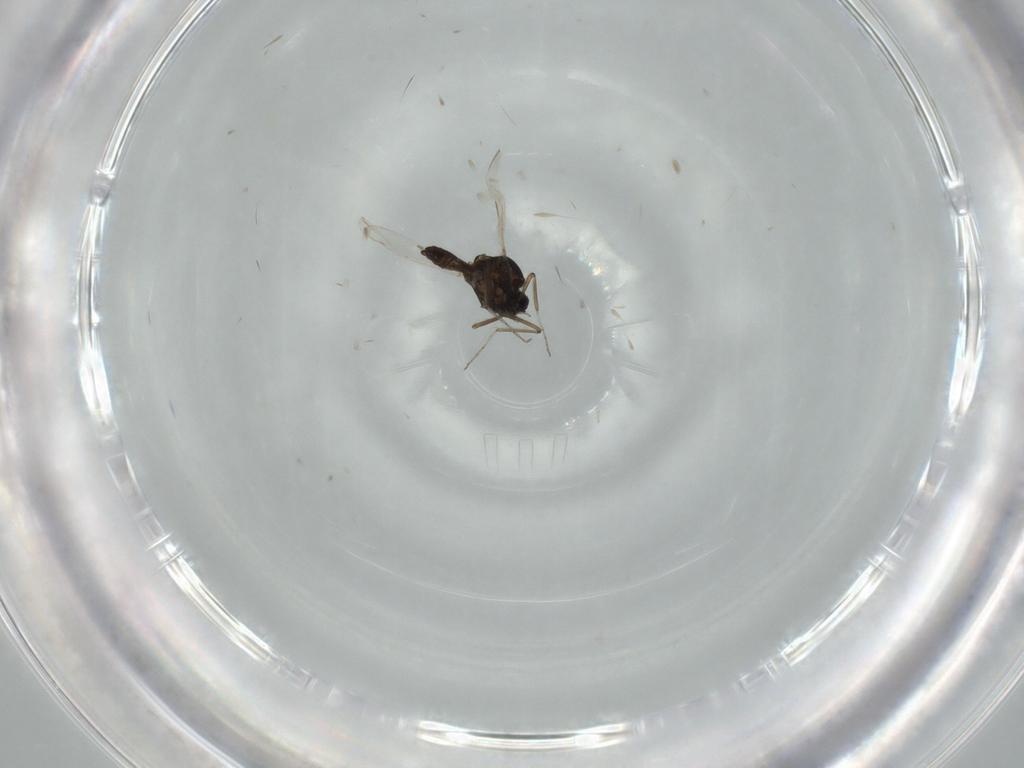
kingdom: Animalia
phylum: Arthropoda
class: Insecta
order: Diptera
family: Ceratopogonidae
